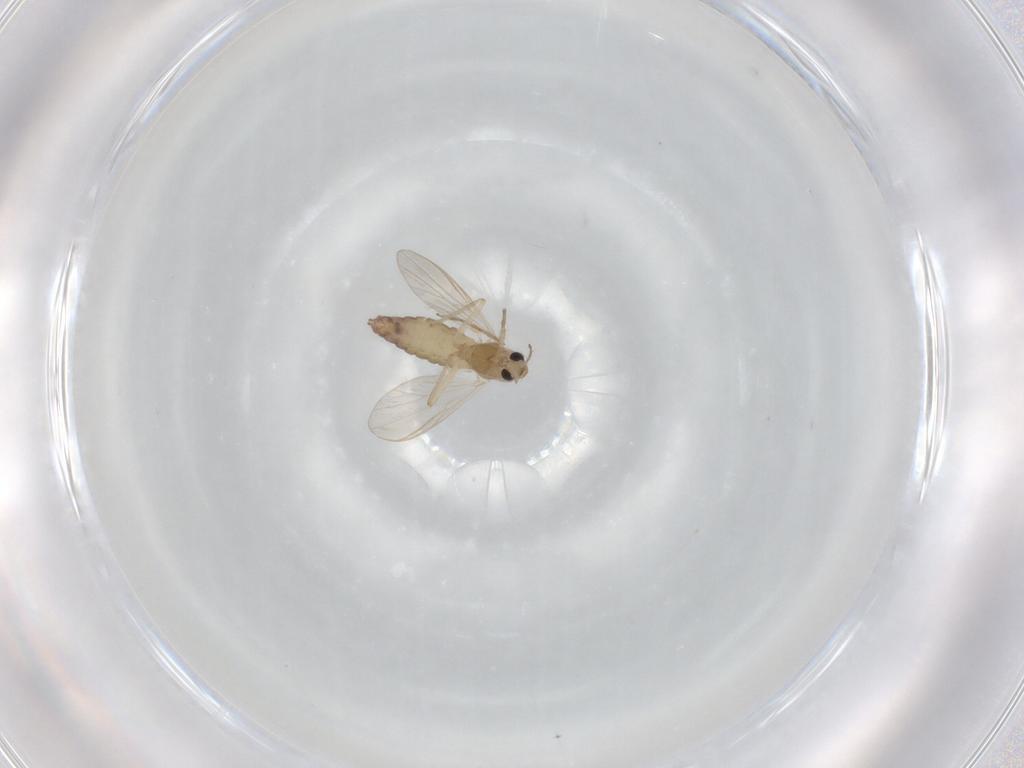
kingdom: Animalia
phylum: Arthropoda
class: Insecta
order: Diptera
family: Chironomidae
